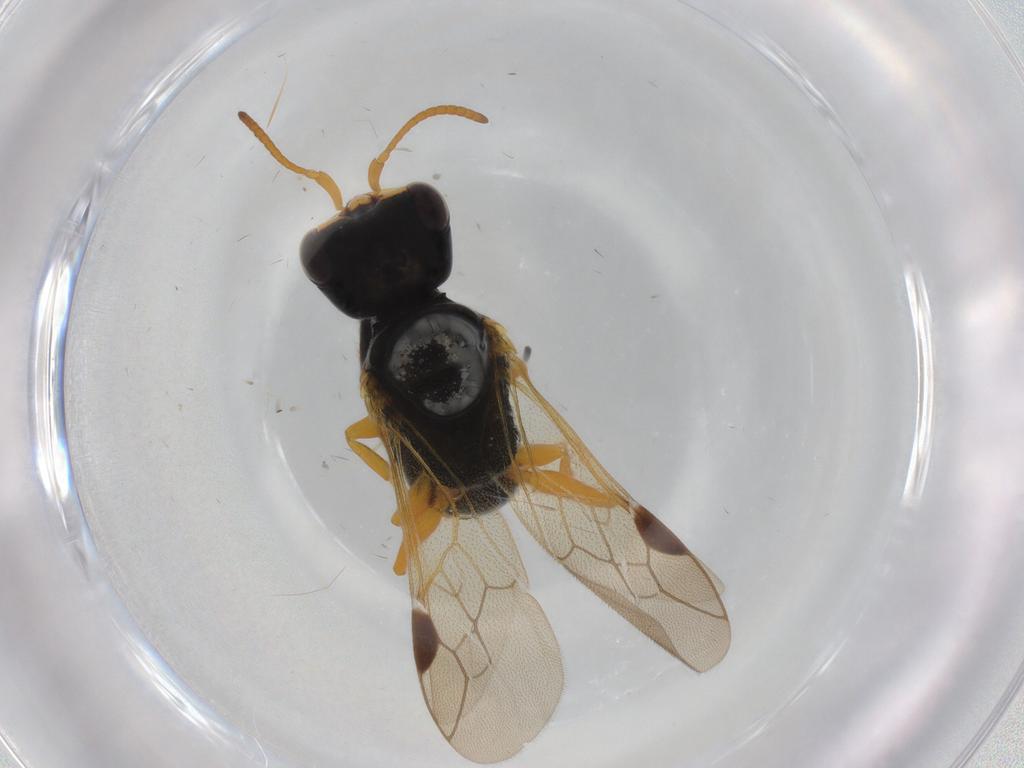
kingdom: Animalia
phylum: Arthropoda
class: Insecta
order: Hymenoptera
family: Crabronidae
